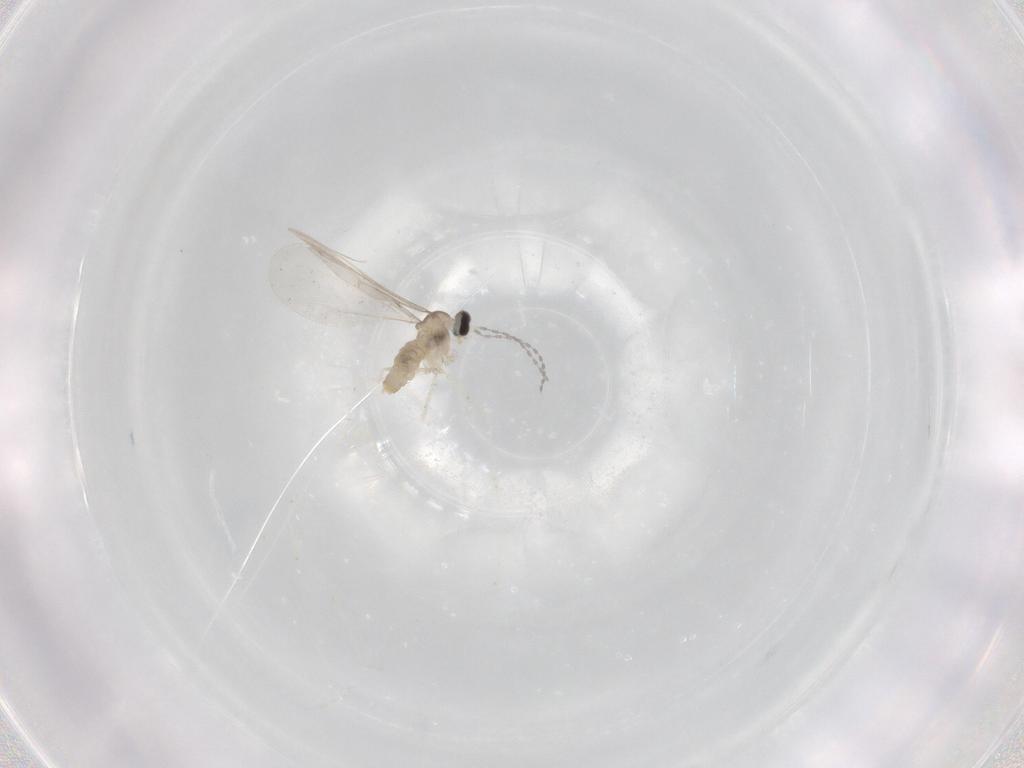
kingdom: Animalia
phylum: Arthropoda
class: Insecta
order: Diptera
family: Cecidomyiidae
